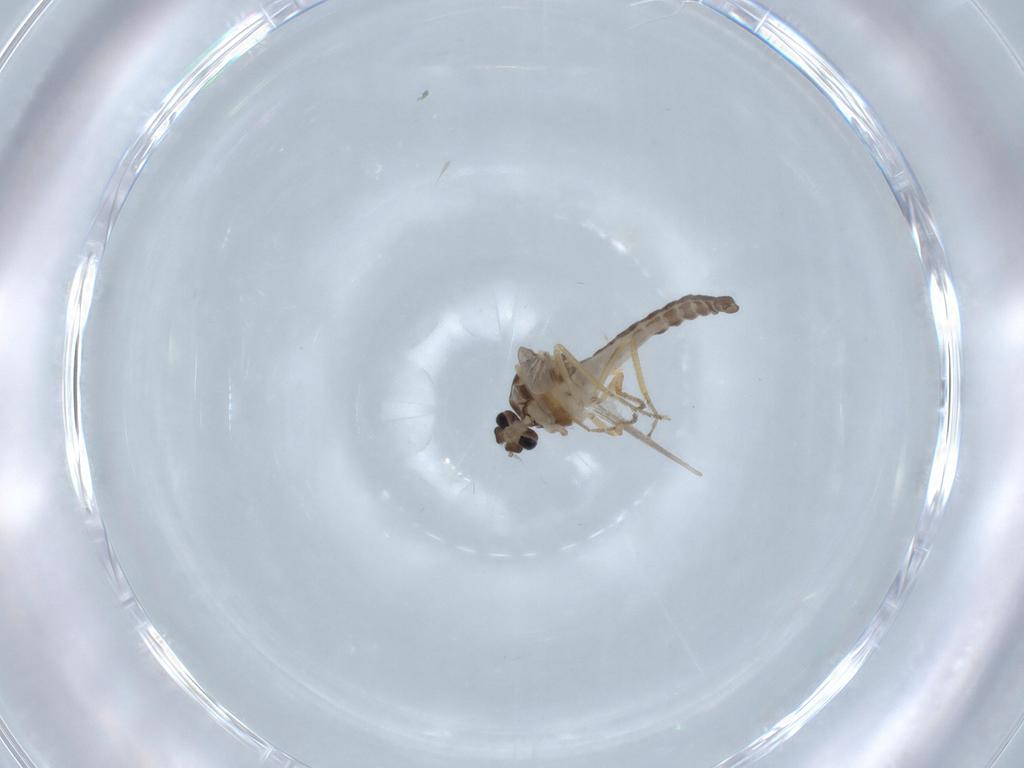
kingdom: Animalia
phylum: Arthropoda
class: Insecta
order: Diptera
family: Ceratopogonidae
